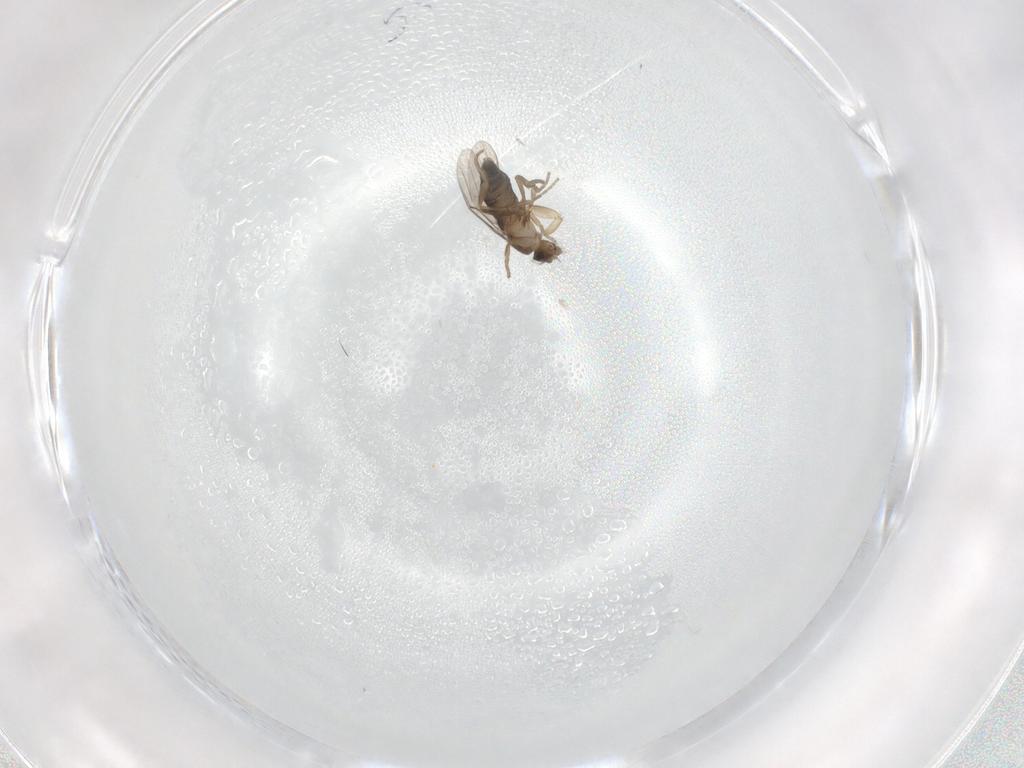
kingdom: Animalia
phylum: Arthropoda
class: Insecta
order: Diptera
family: Phoridae
